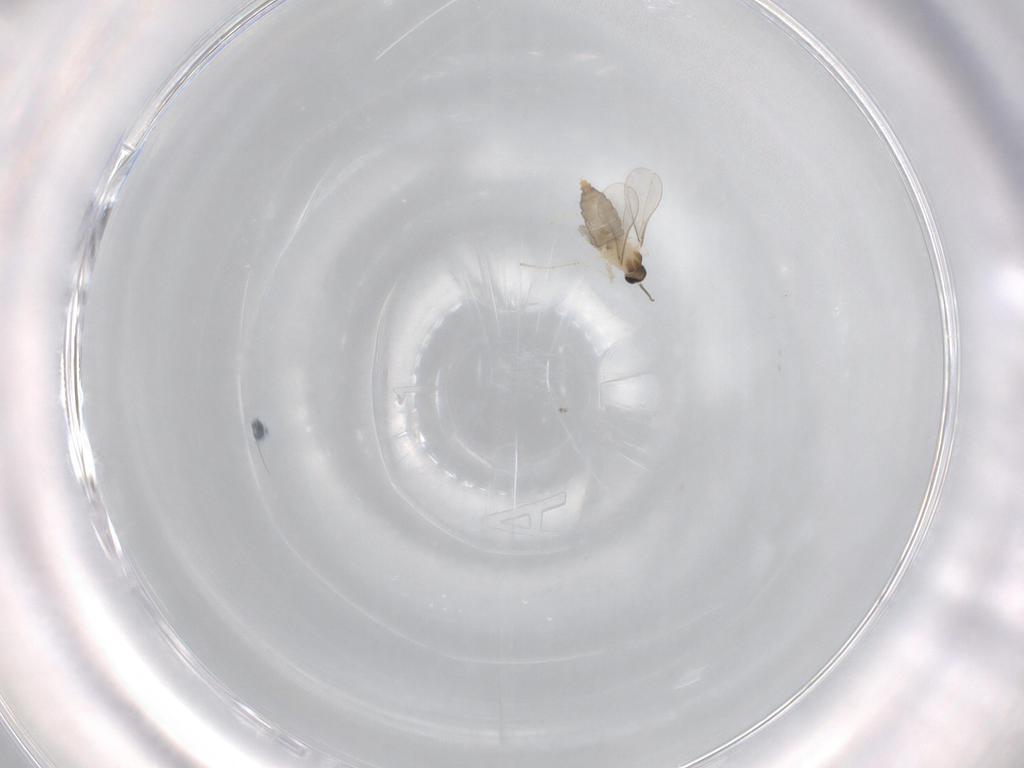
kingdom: Animalia
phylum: Arthropoda
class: Insecta
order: Diptera
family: Cecidomyiidae
